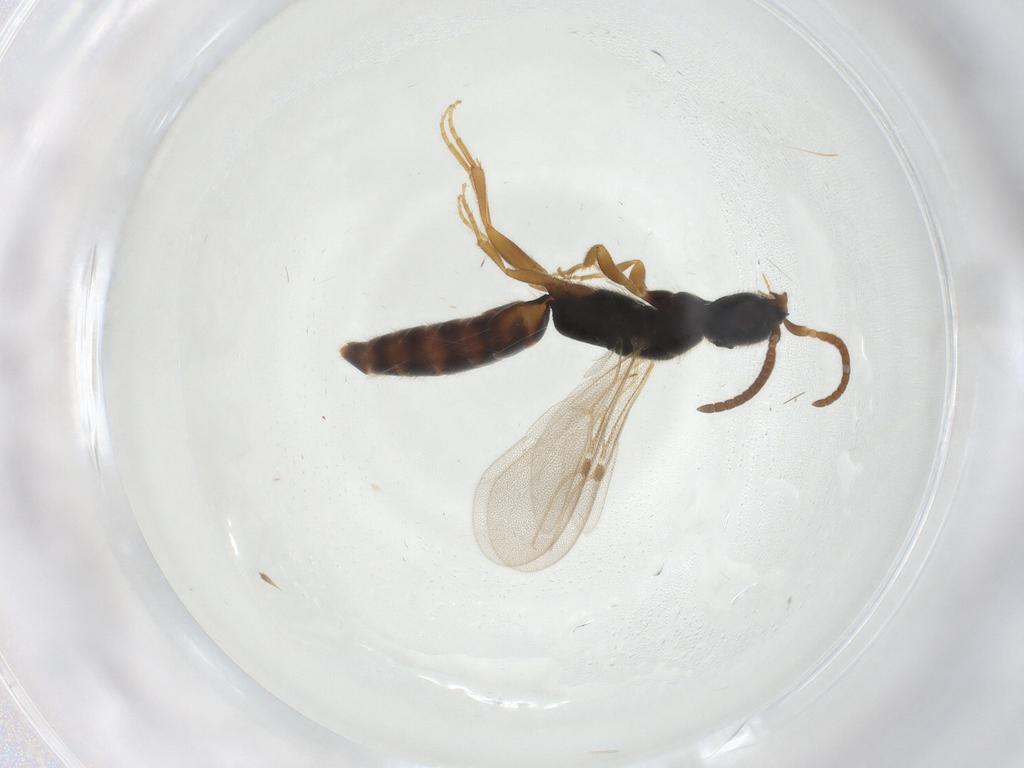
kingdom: Animalia
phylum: Arthropoda
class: Insecta
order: Hymenoptera
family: Bethylidae
